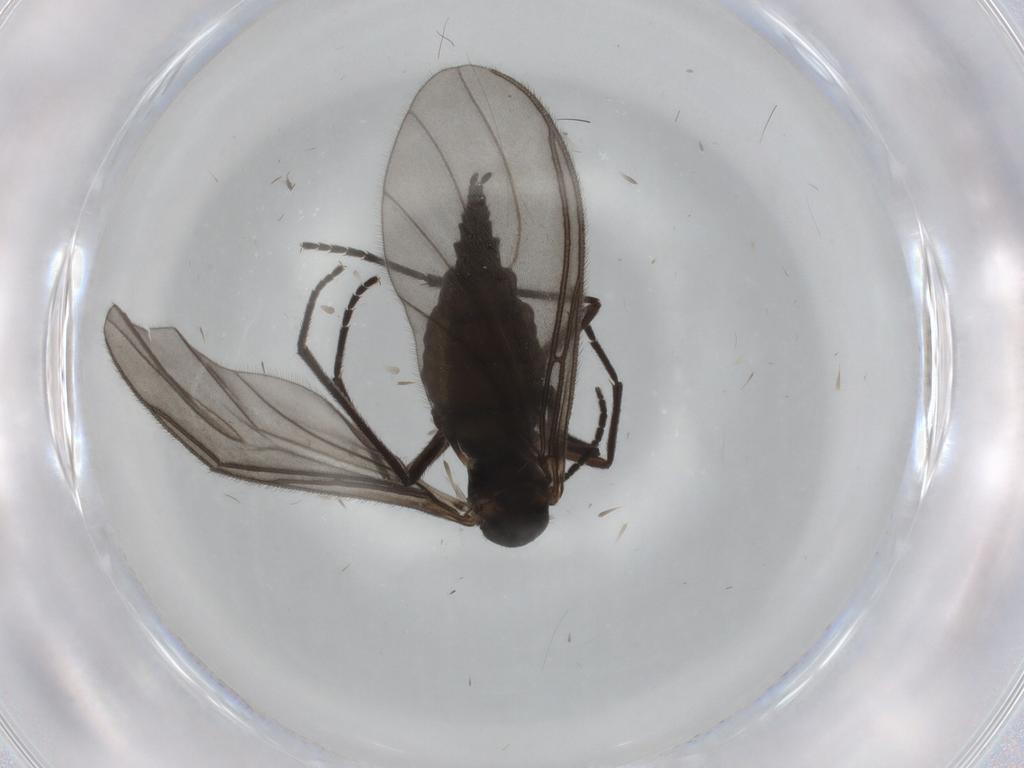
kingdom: Animalia
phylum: Arthropoda
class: Insecta
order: Diptera
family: Sciaridae
